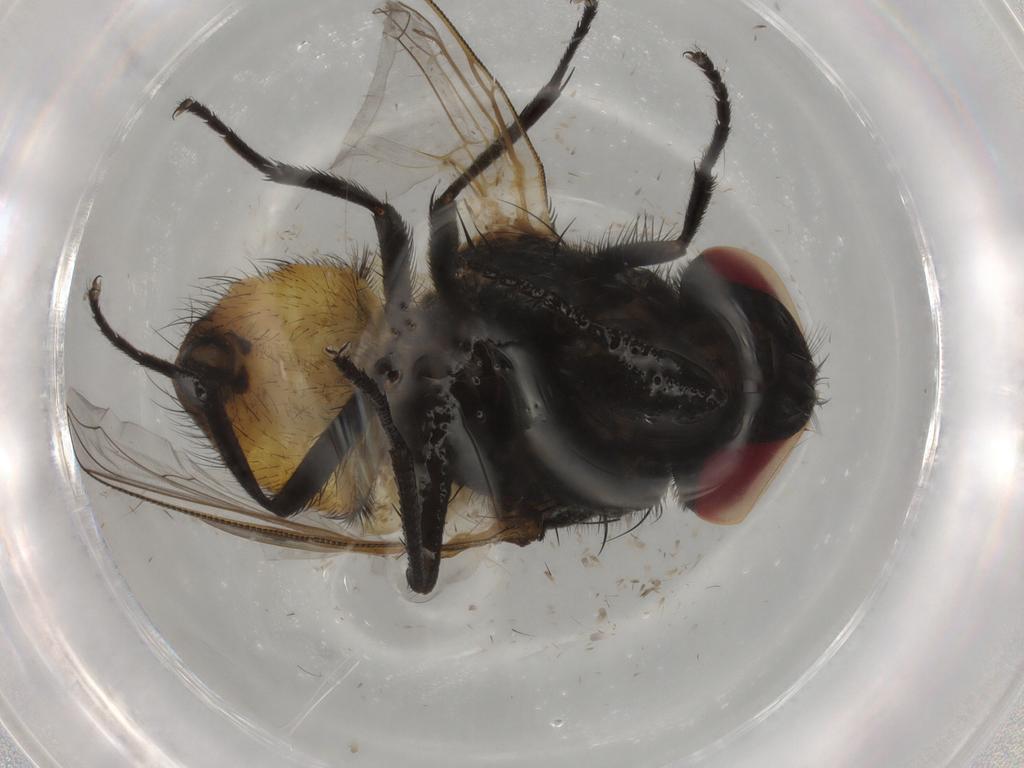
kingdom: Animalia
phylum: Arthropoda
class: Insecta
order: Diptera
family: Muscidae
